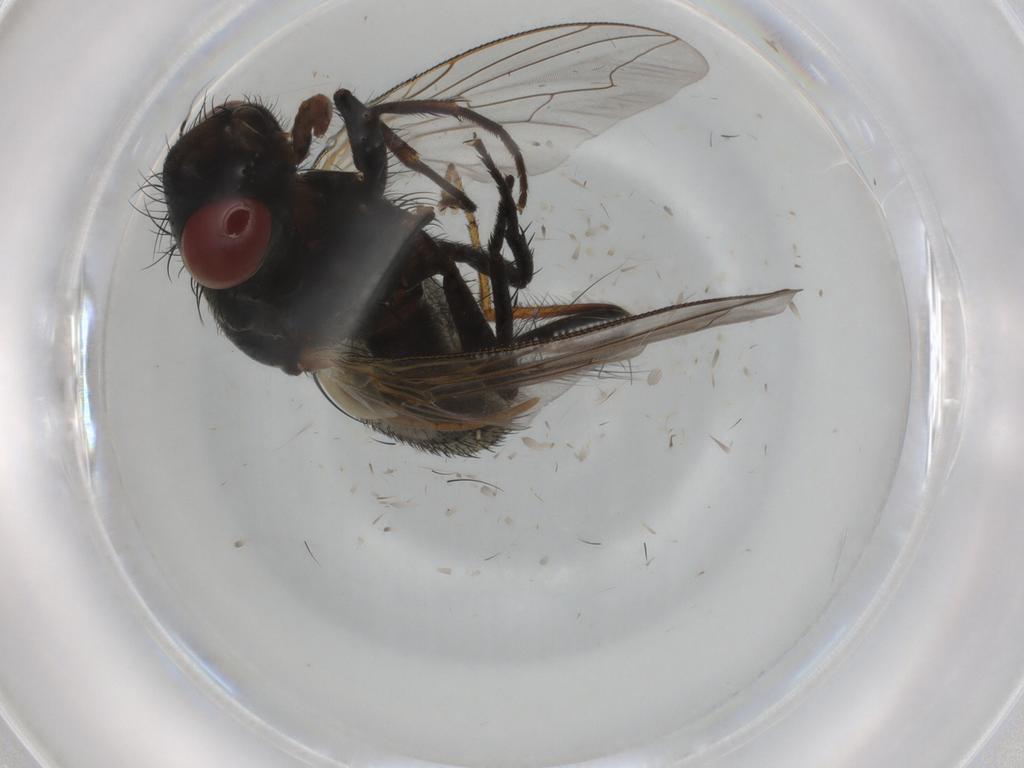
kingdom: Animalia
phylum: Arthropoda
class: Insecta
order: Diptera
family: Sarcophagidae
